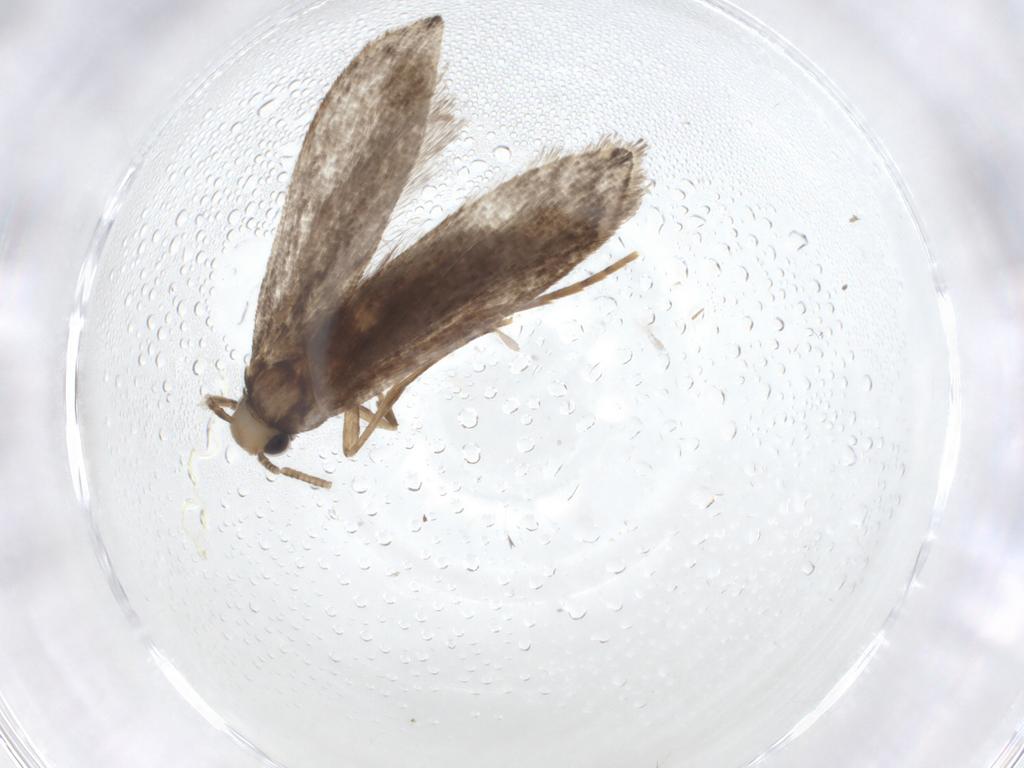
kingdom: Animalia
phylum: Arthropoda
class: Insecta
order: Lepidoptera
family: Tineidae
